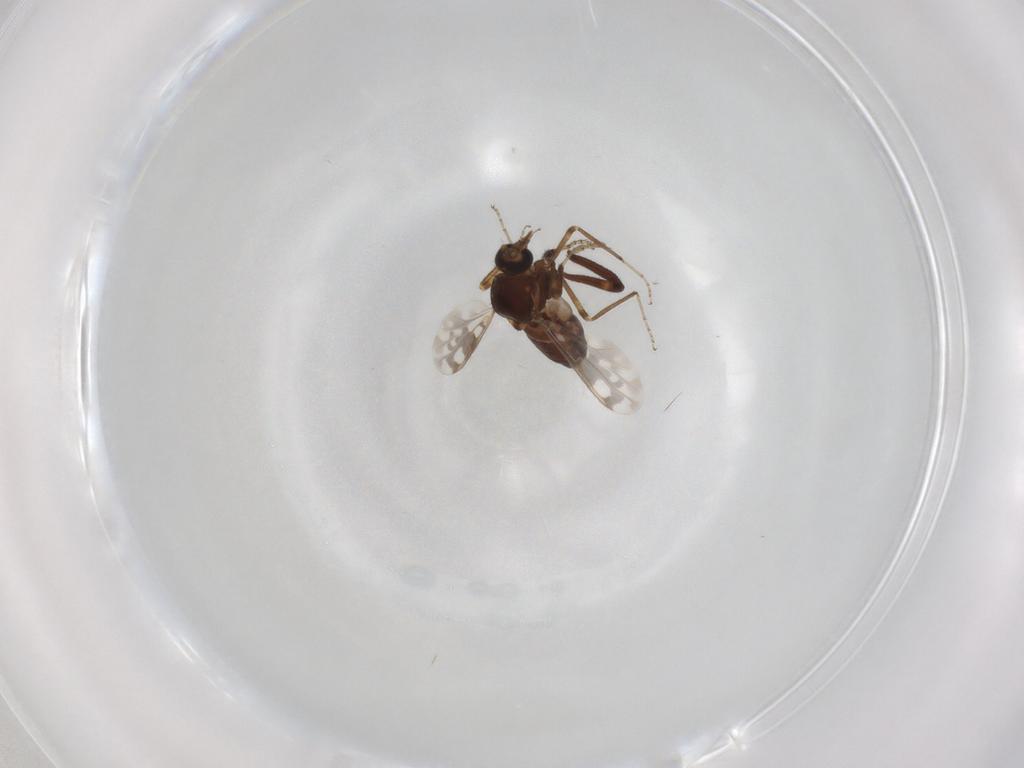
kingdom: Animalia
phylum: Arthropoda
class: Insecta
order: Diptera
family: Ceratopogonidae
